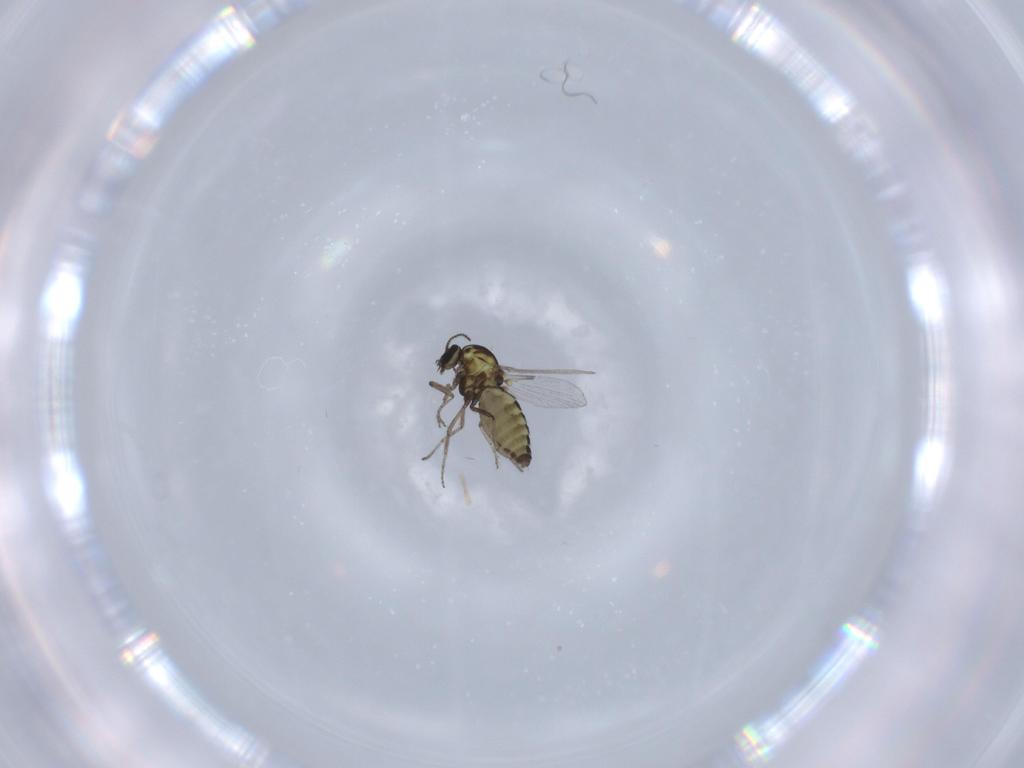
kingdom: Animalia
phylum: Arthropoda
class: Insecta
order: Diptera
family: Ceratopogonidae
